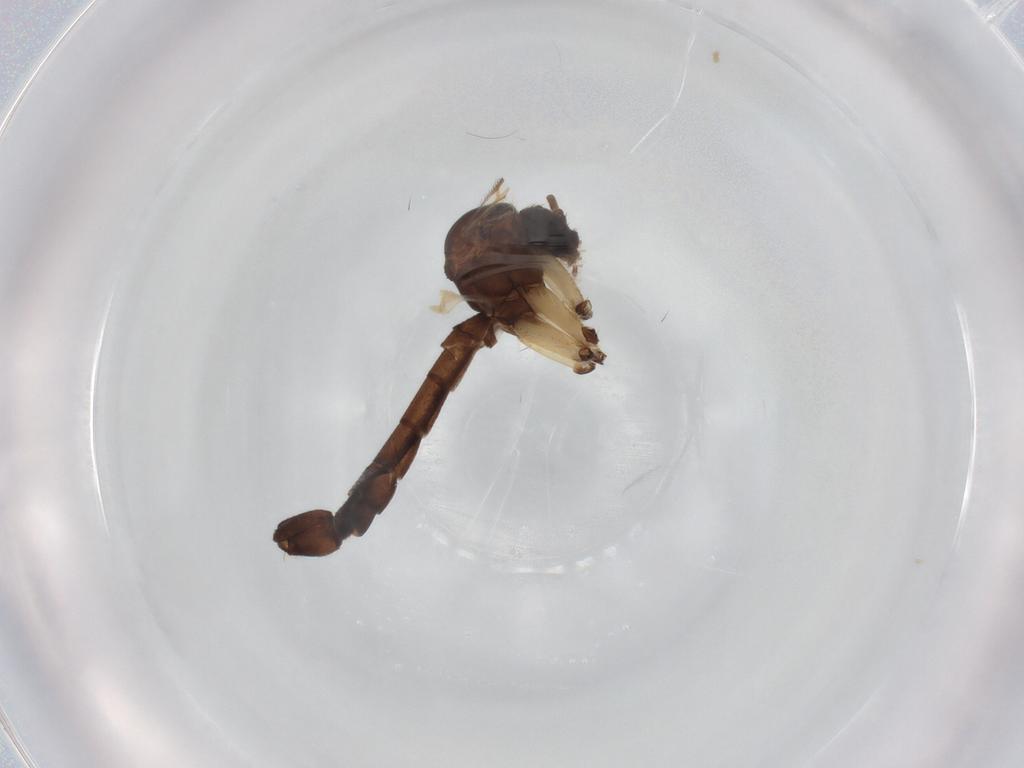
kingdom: Animalia
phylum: Arthropoda
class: Insecta
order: Diptera
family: Mycetophilidae
